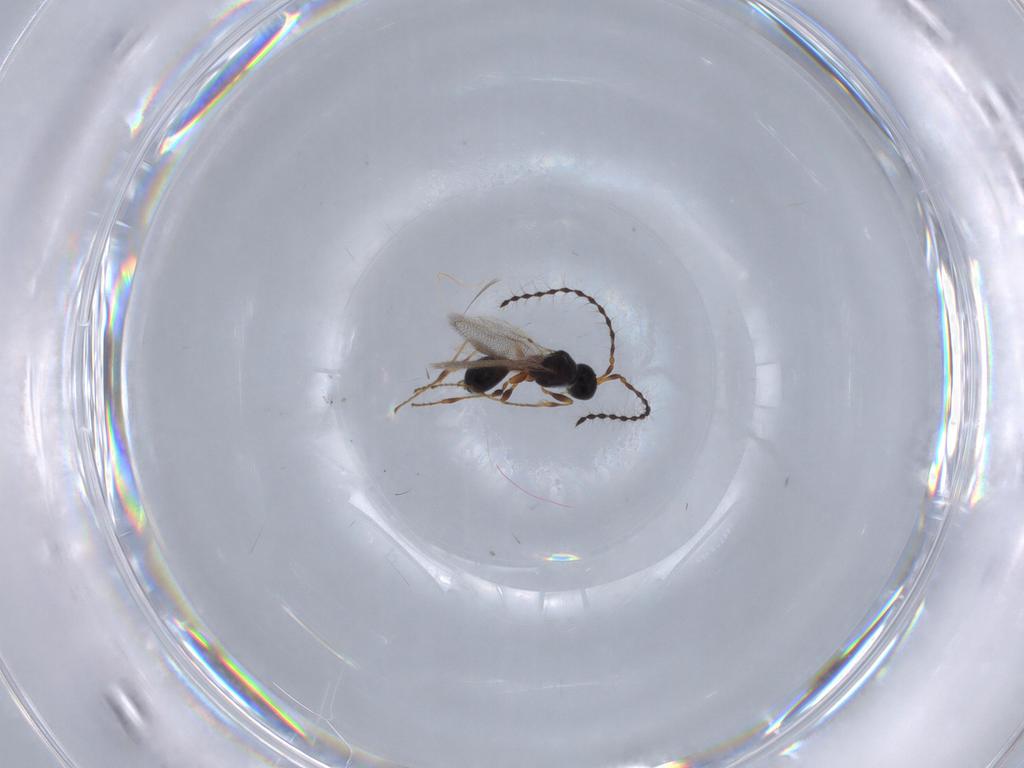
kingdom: Animalia
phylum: Arthropoda
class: Insecta
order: Hymenoptera
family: Diapriidae
